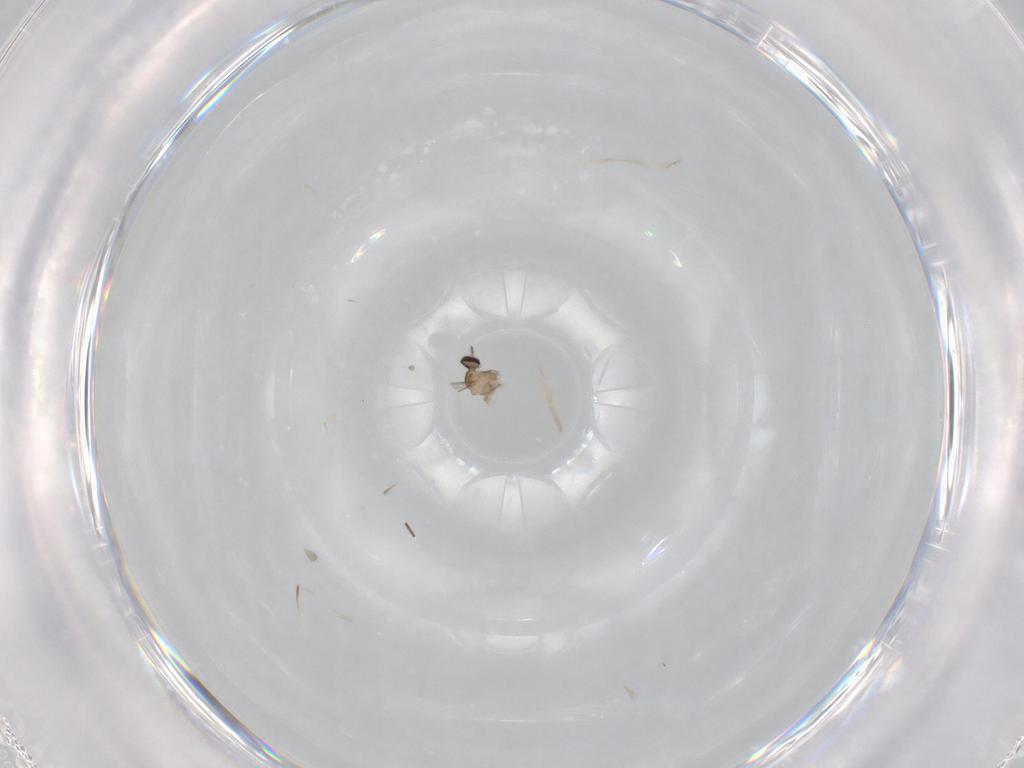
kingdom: Animalia
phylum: Arthropoda
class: Insecta
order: Diptera
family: Cecidomyiidae
